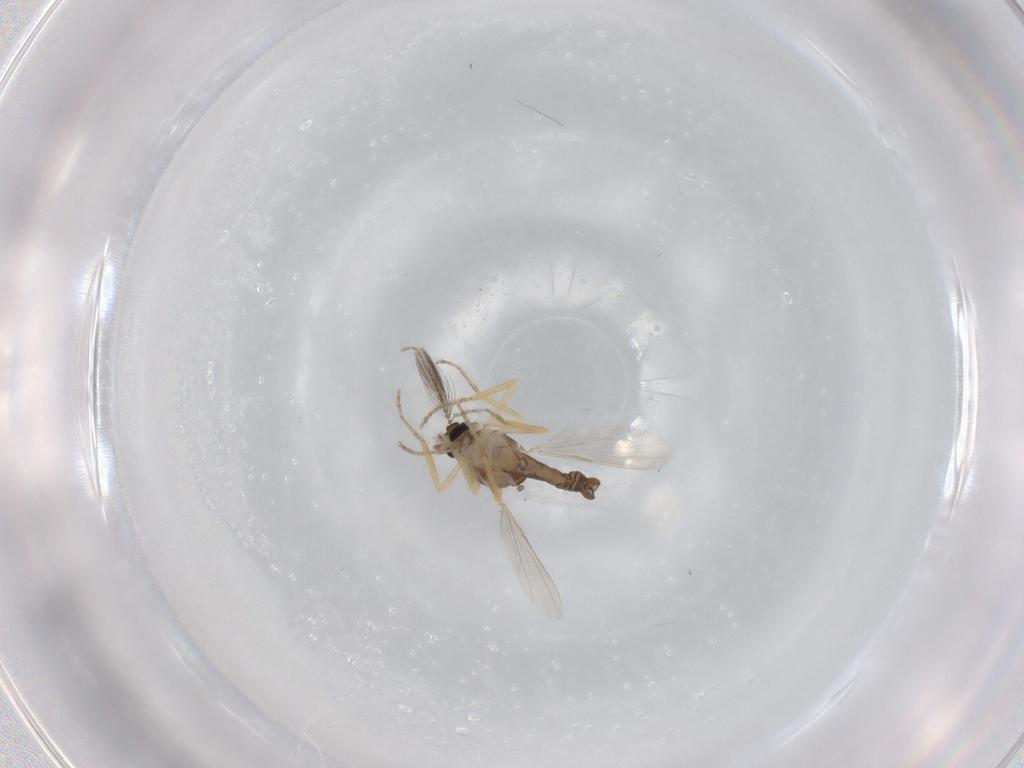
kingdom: Animalia
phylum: Arthropoda
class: Insecta
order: Diptera
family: Ceratopogonidae
